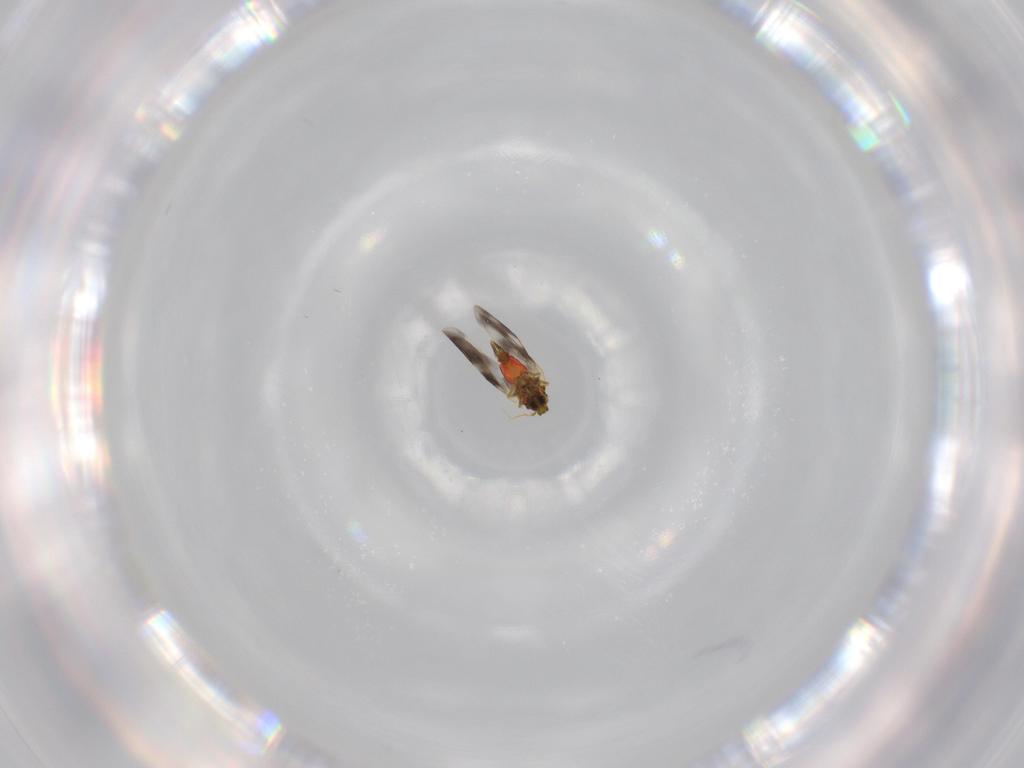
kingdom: Animalia
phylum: Arthropoda
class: Insecta
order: Hemiptera
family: Aleyrodidae
